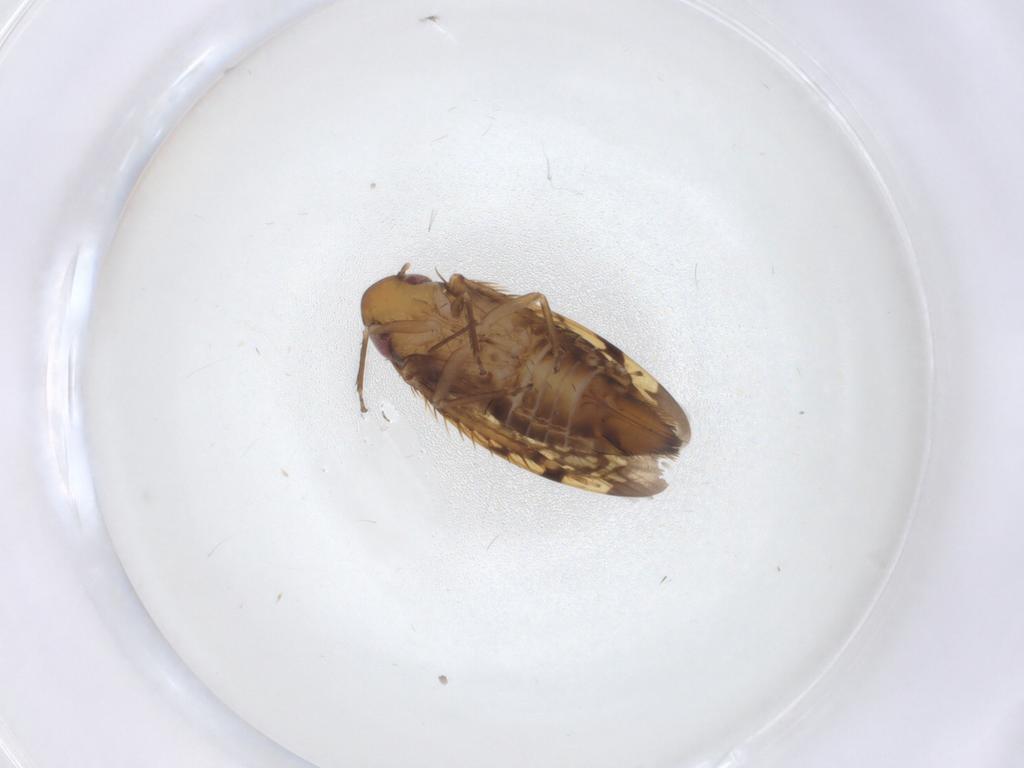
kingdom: Animalia
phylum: Arthropoda
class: Insecta
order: Hemiptera
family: Cicadellidae
